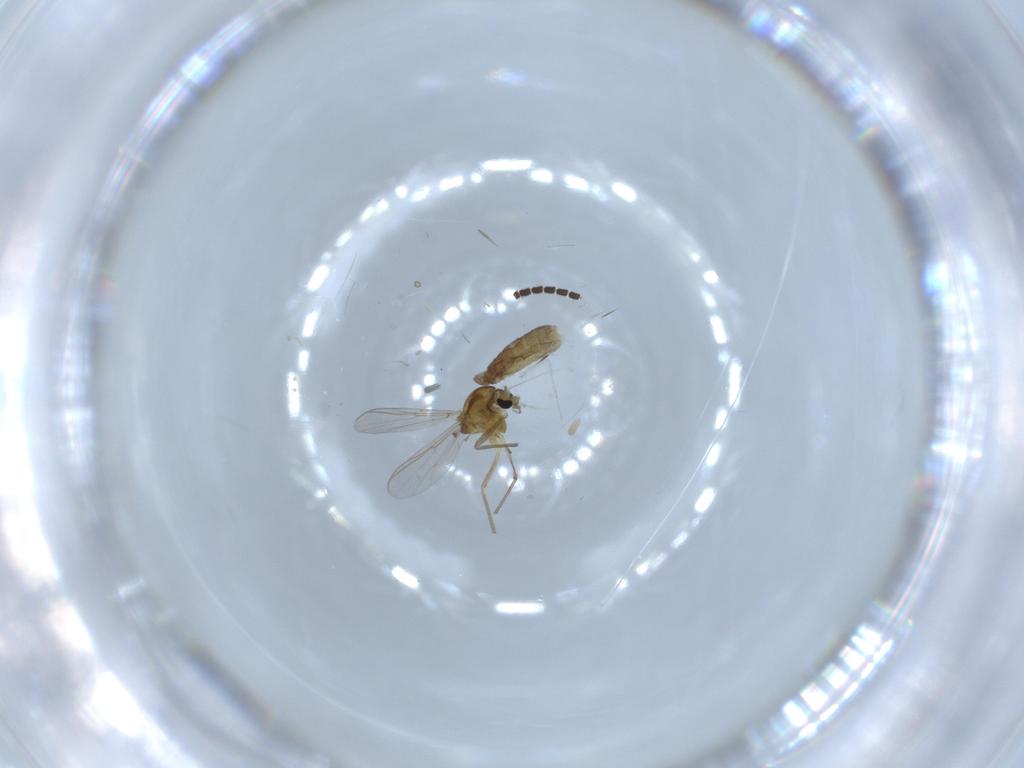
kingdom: Animalia
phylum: Arthropoda
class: Insecta
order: Diptera
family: Chironomidae
